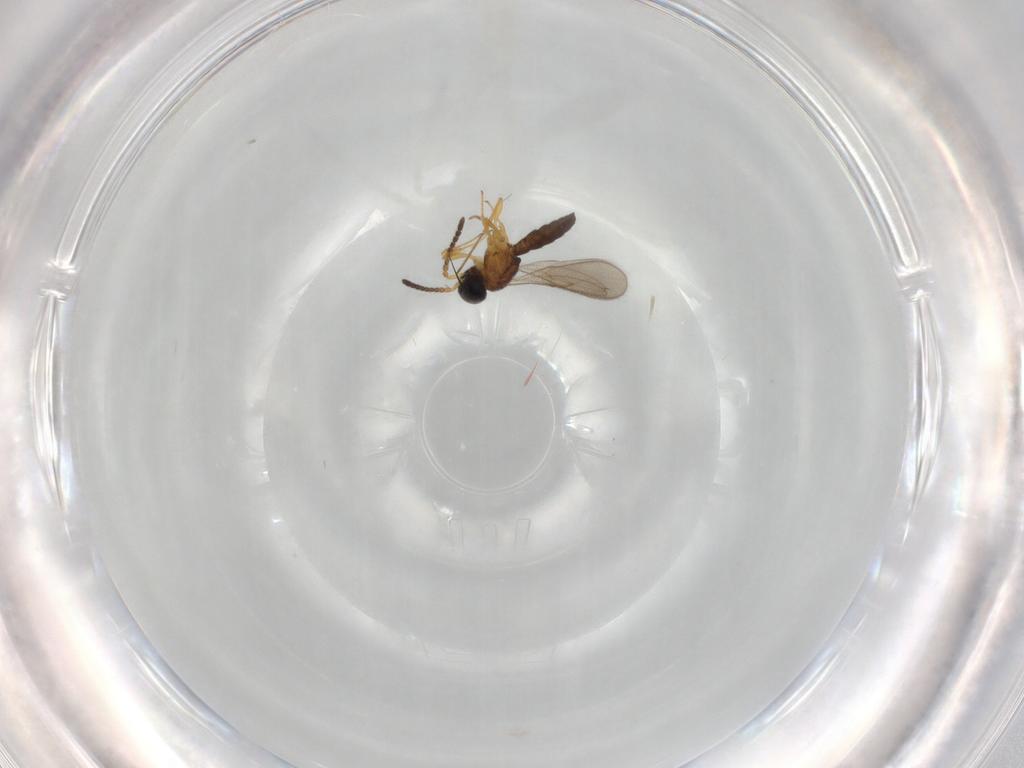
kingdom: Animalia
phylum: Arthropoda
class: Insecta
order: Hymenoptera
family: Scelionidae
